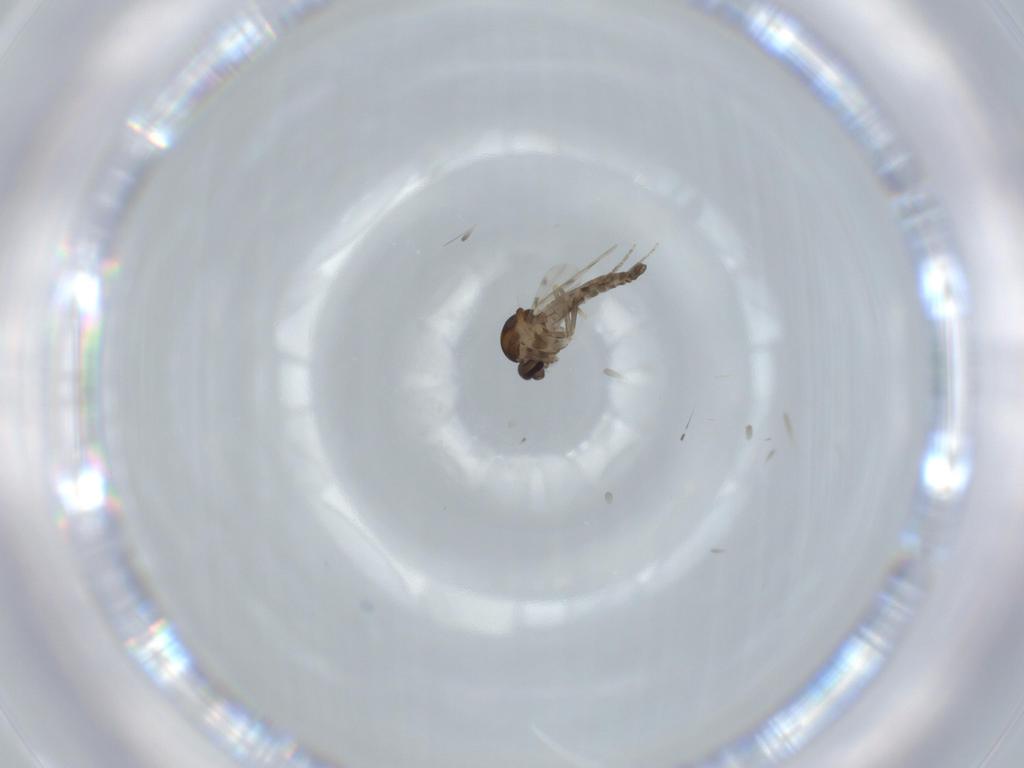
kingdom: Animalia
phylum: Arthropoda
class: Insecta
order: Diptera
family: Ceratopogonidae
